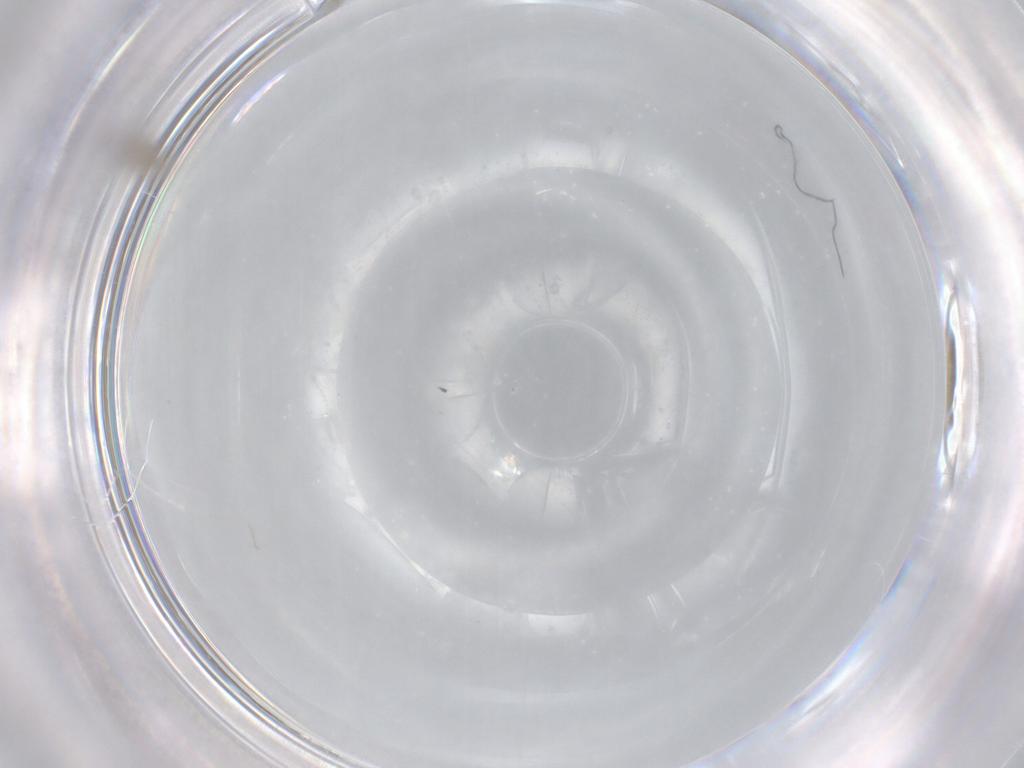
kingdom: Animalia
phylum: Arthropoda
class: Insecta
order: Diptera
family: Cecidomyiidae
